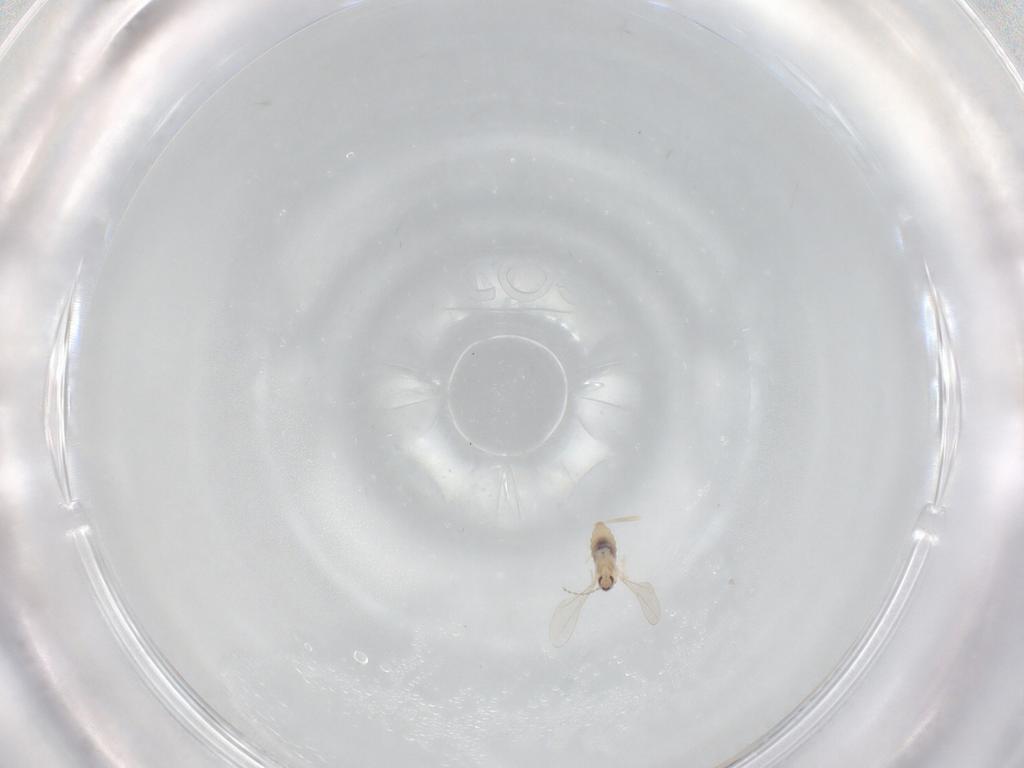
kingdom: Animalia
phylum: Arthropoda
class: Insecta
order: Diptera
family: Cecidomyiidae
